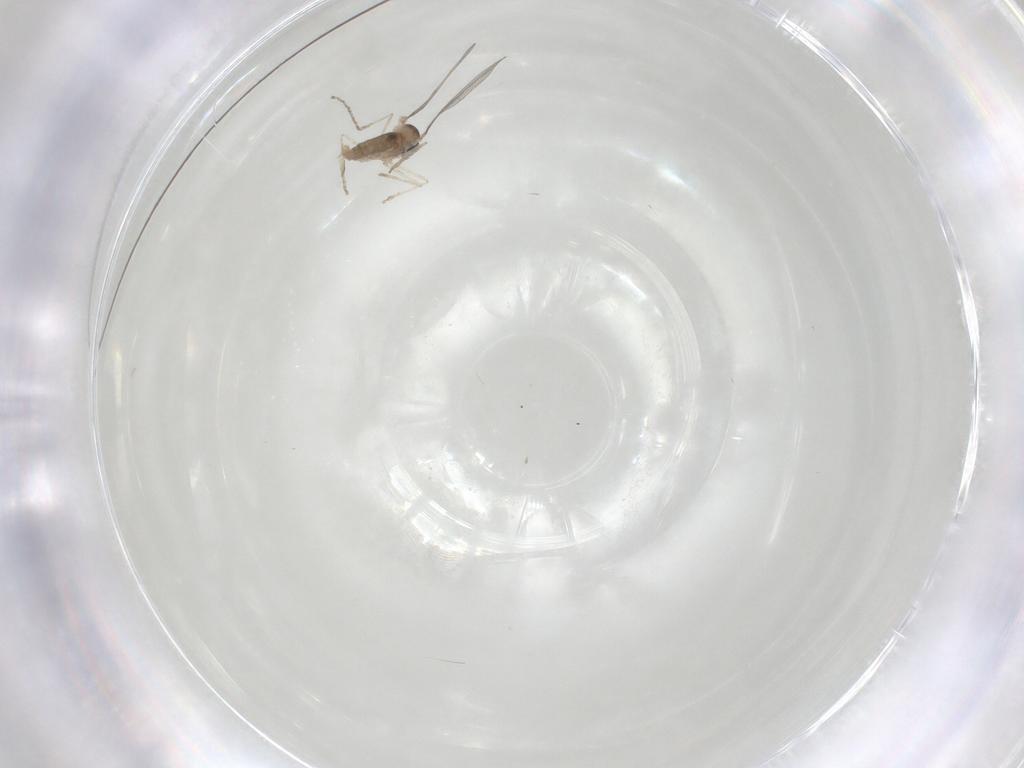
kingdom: Animalia
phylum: Arthropoda
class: Insecta
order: Diptera
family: Cecidomyiidae
